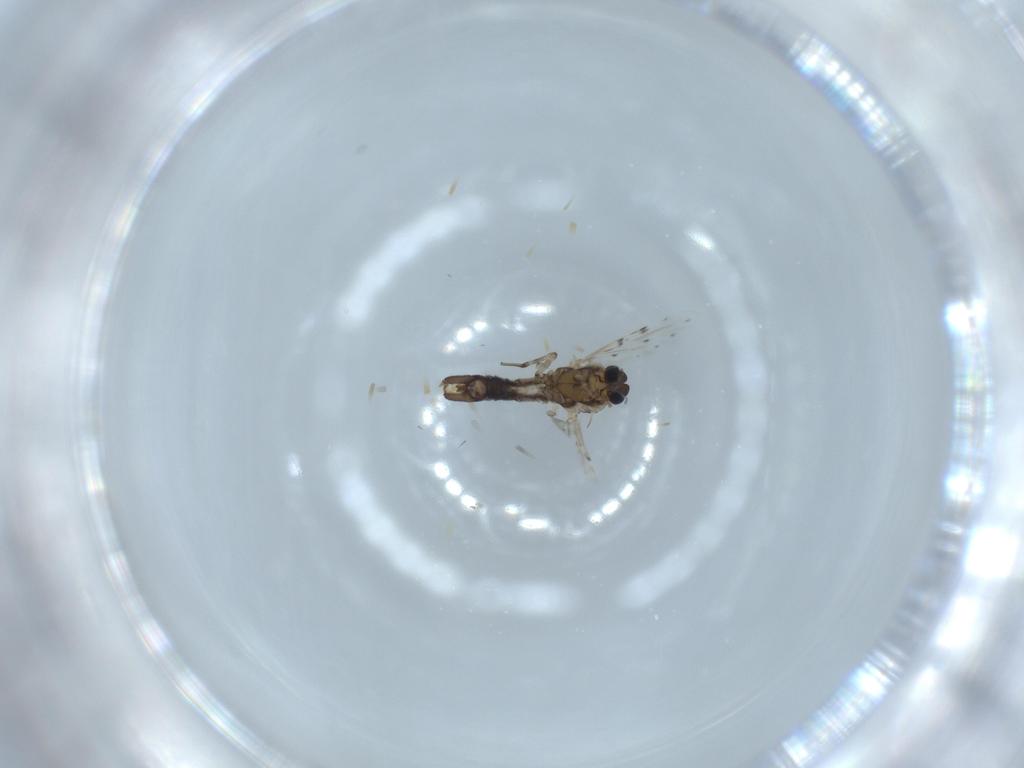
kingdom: Animalia
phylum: Arthropoda
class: Insecta
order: Diptera
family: Ceratopogonidae
